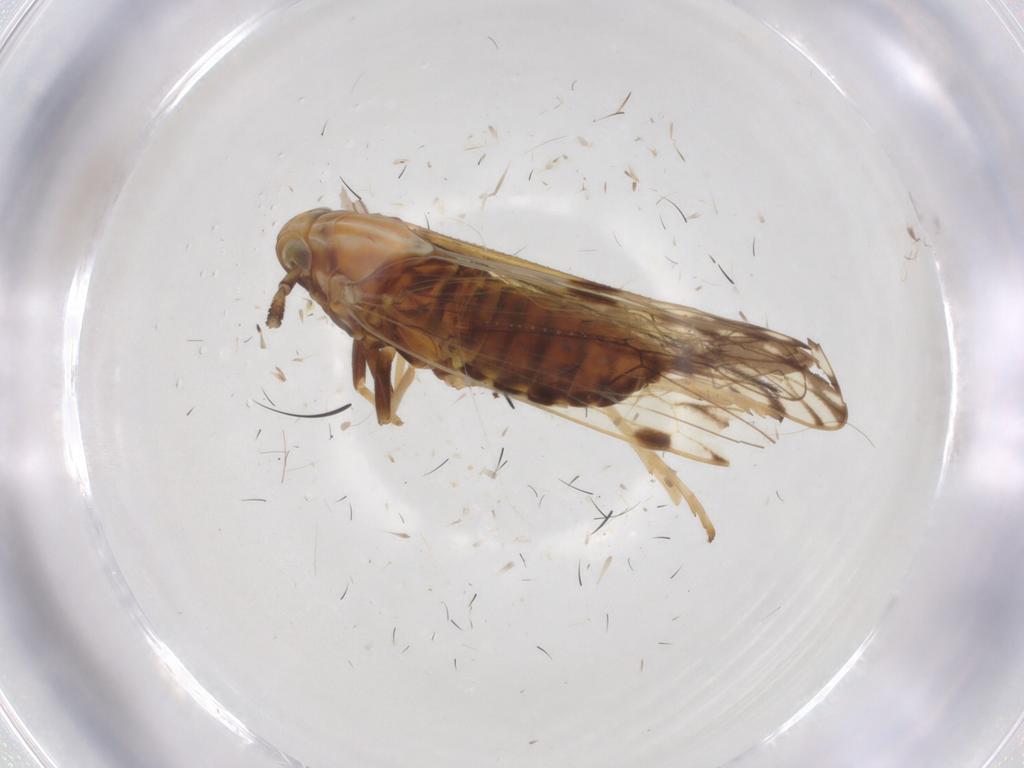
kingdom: Animalia
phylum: Arthropoda
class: Insecta
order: Hemiptera
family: Delphacidae
